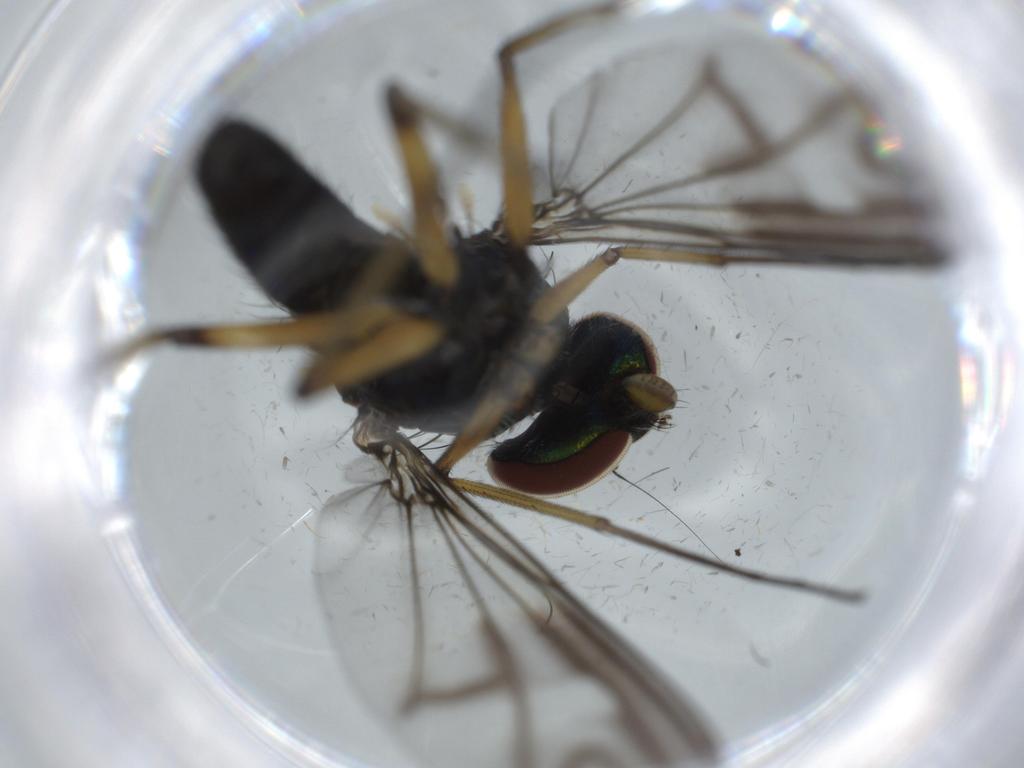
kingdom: Animalia
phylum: Arthropoda
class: Insecta
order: Diptera
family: Dolichopodidae
